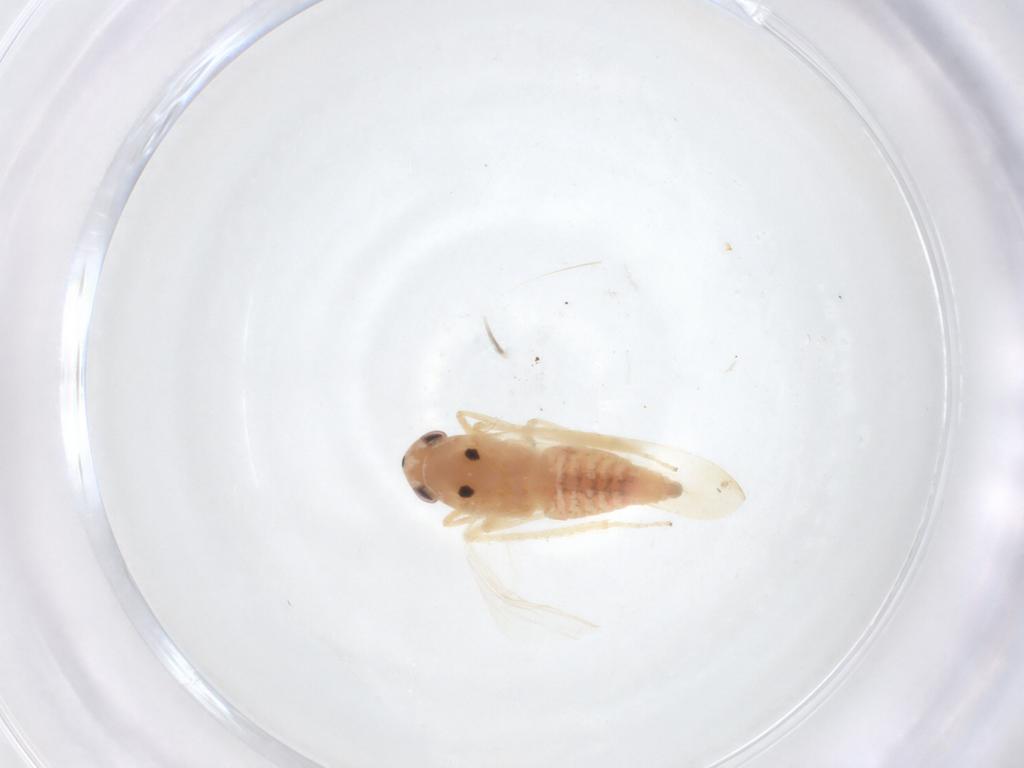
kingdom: Animalia
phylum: Arthropoda
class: Insecta
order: Hemiptera
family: Cicadellidae
